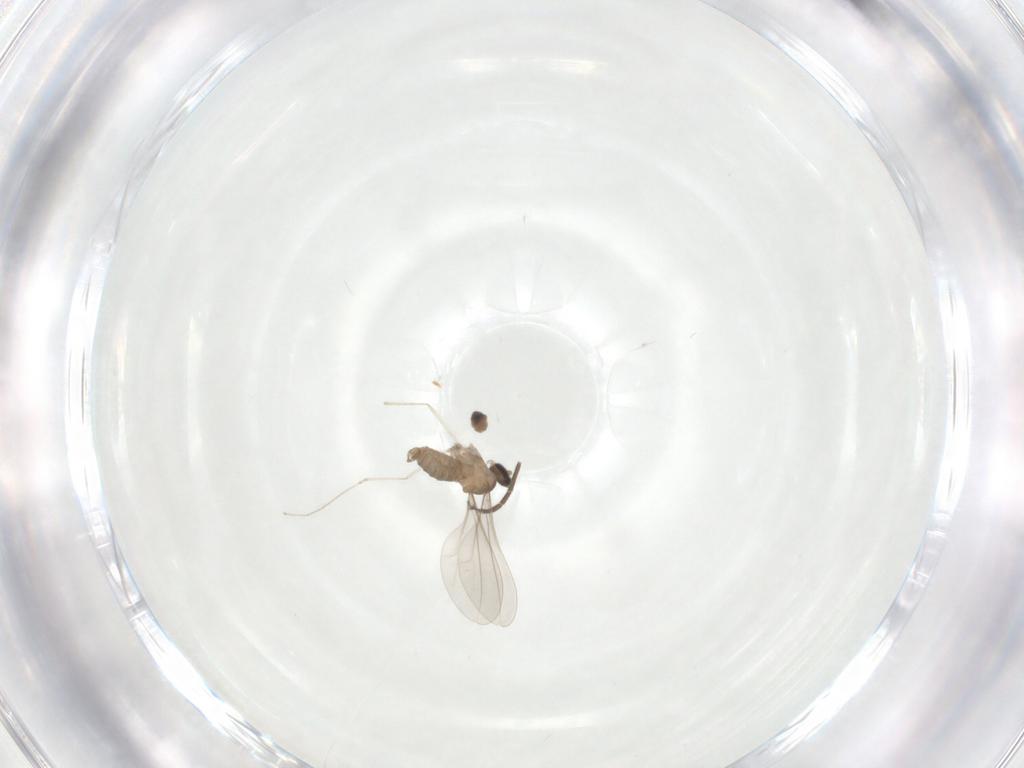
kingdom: Animalia
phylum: Arthropoda
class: Insecta
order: Diptera
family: Sciaridae
